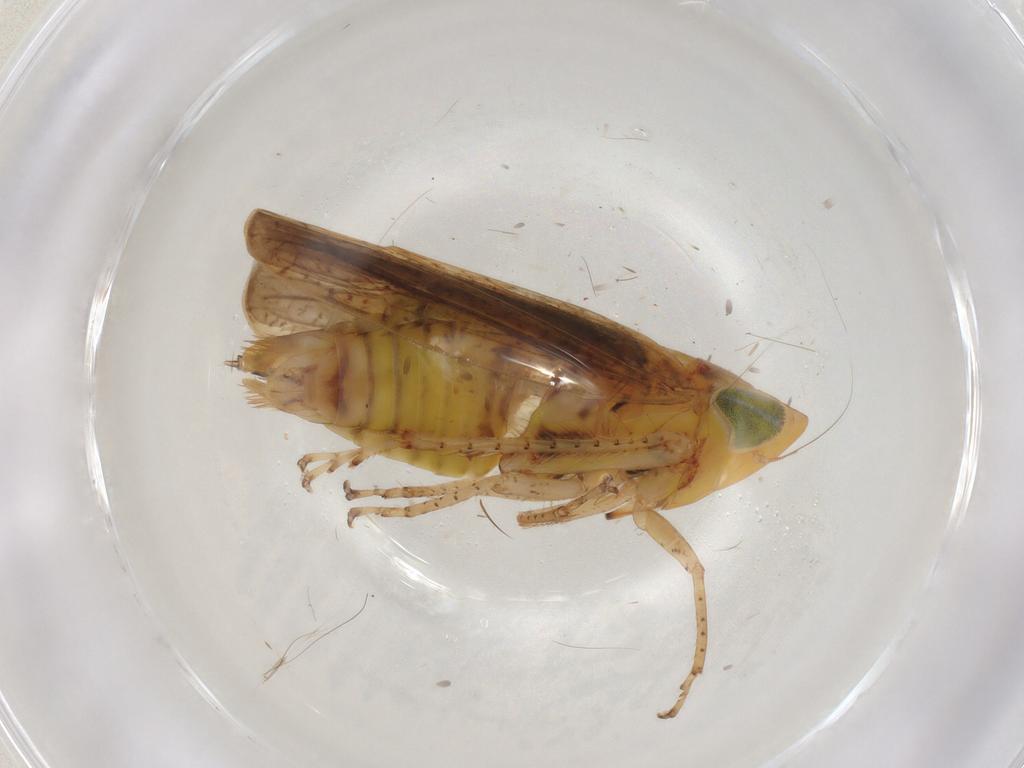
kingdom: Animalia
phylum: Arthropoda
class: Insecta
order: Hemiptera
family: Cicadellidae
